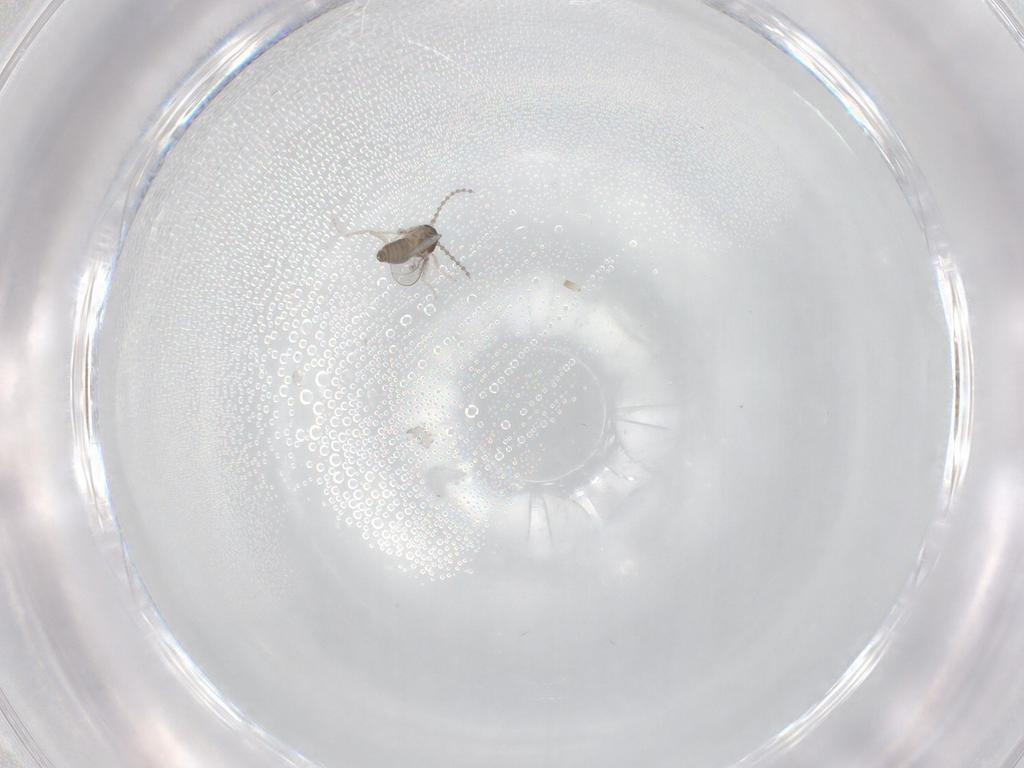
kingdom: Animalia
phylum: Arthropoda
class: Insecta
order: Diptera
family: Cecidomyiidae
